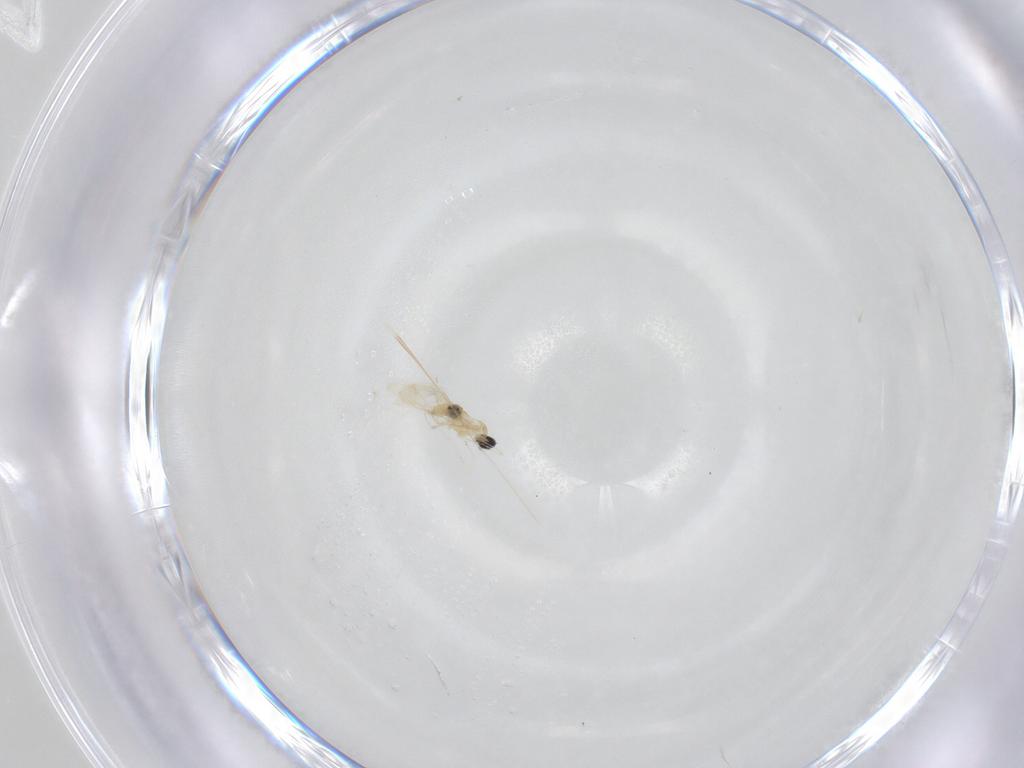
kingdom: Animalia
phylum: Arthropoda
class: Insecta
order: Diptera
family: Cecidomyiidae
